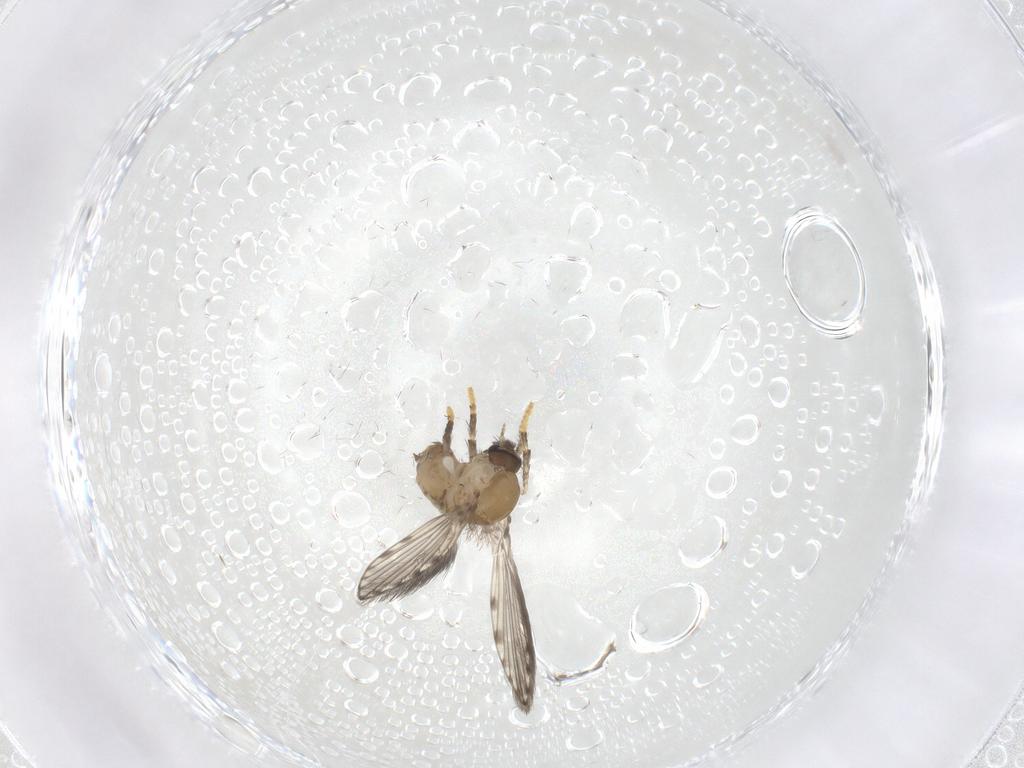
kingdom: Animalia
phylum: Arthropoda
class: Insecta
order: Diptera
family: Psychodidae
